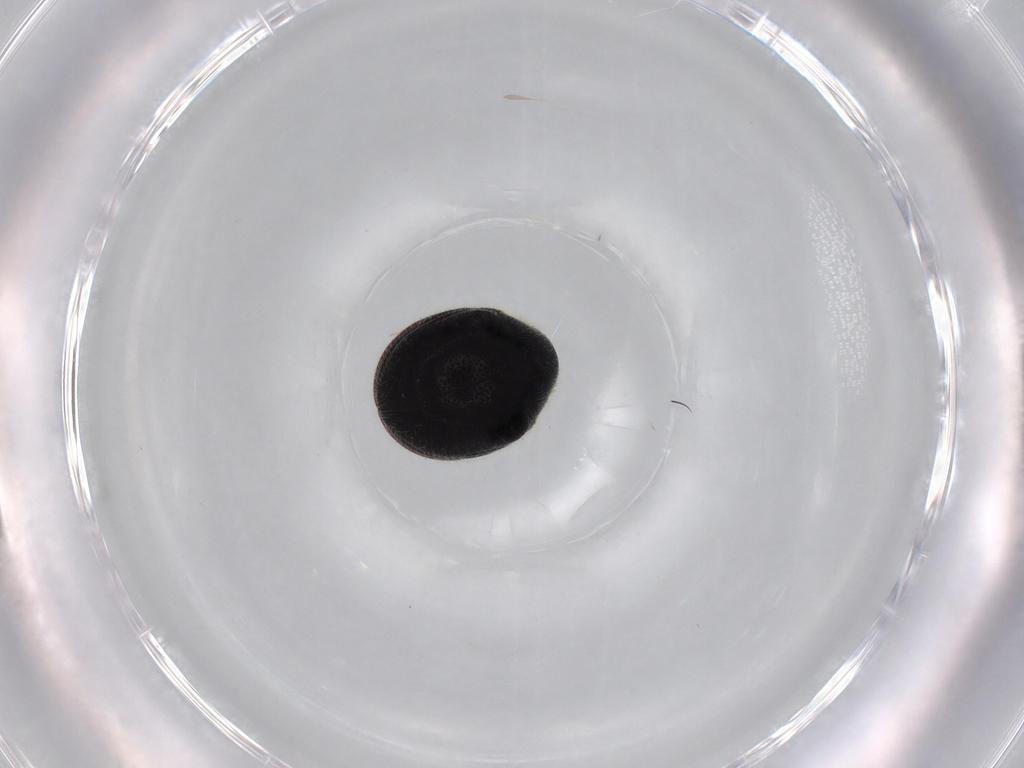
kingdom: Animalia
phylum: Arthropoda
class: Insecta
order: Coleoptera
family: Ptinidae
